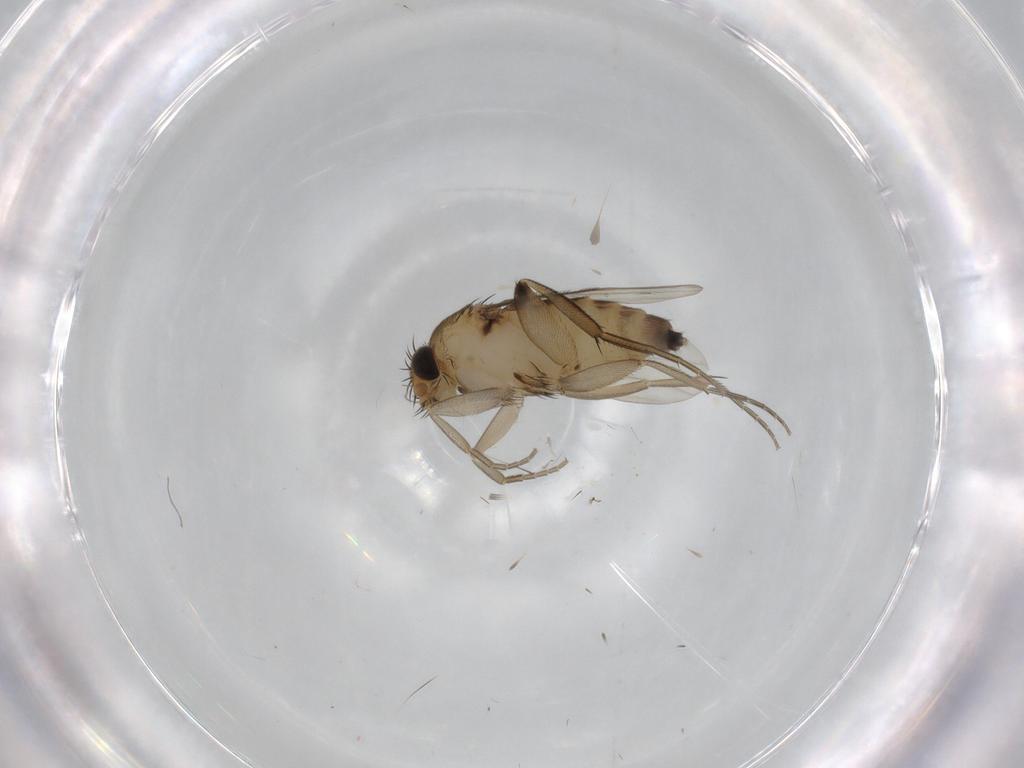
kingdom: Animalia
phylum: Arthropoda
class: Insecta
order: Diptera
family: Phoridae
